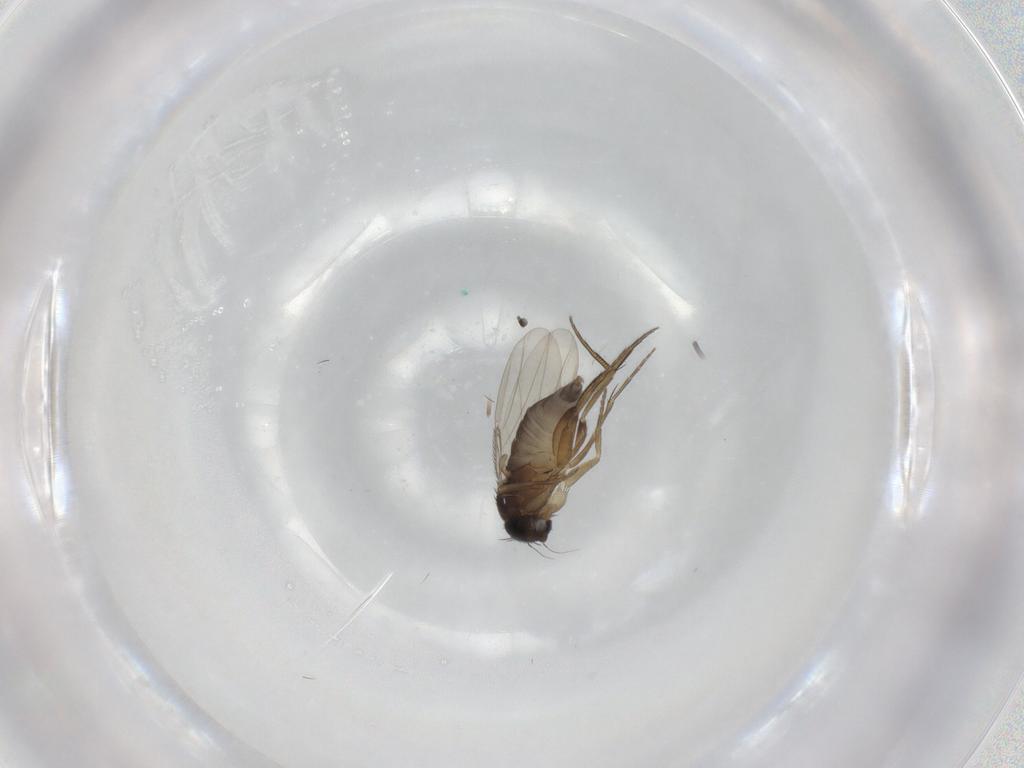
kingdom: Animalia
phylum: Arthropoda
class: Insecta
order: Diptera
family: Phoridae
